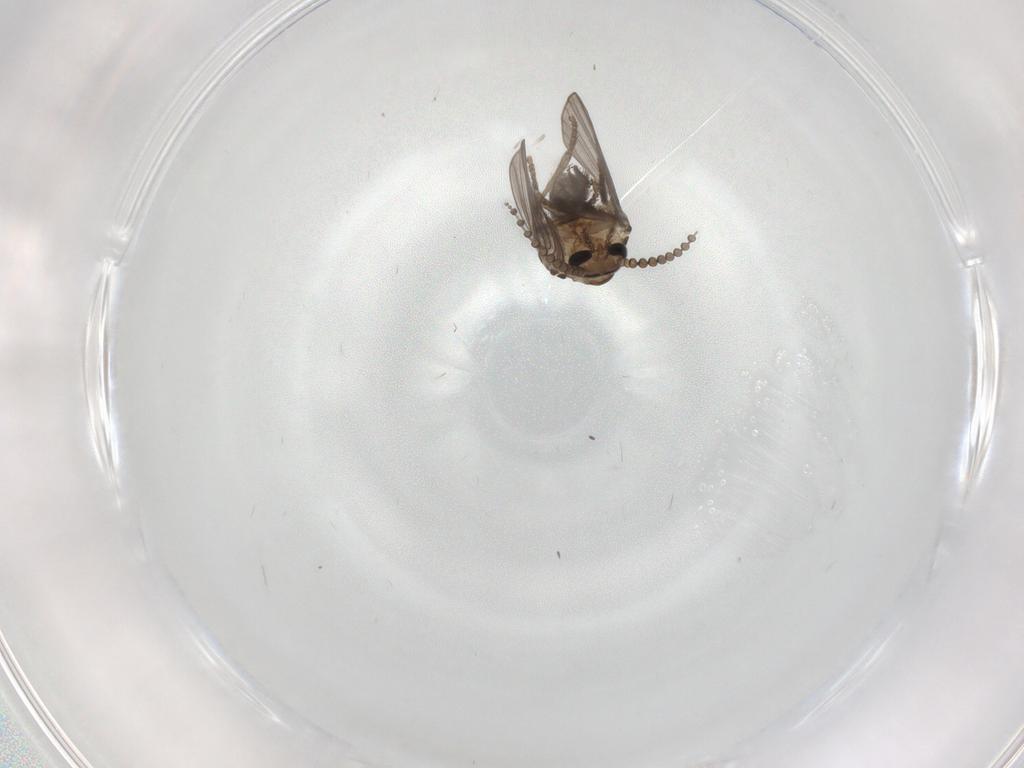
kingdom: Animalia
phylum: Arthropoda
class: Insecta
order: Diptera
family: Psychodidae
